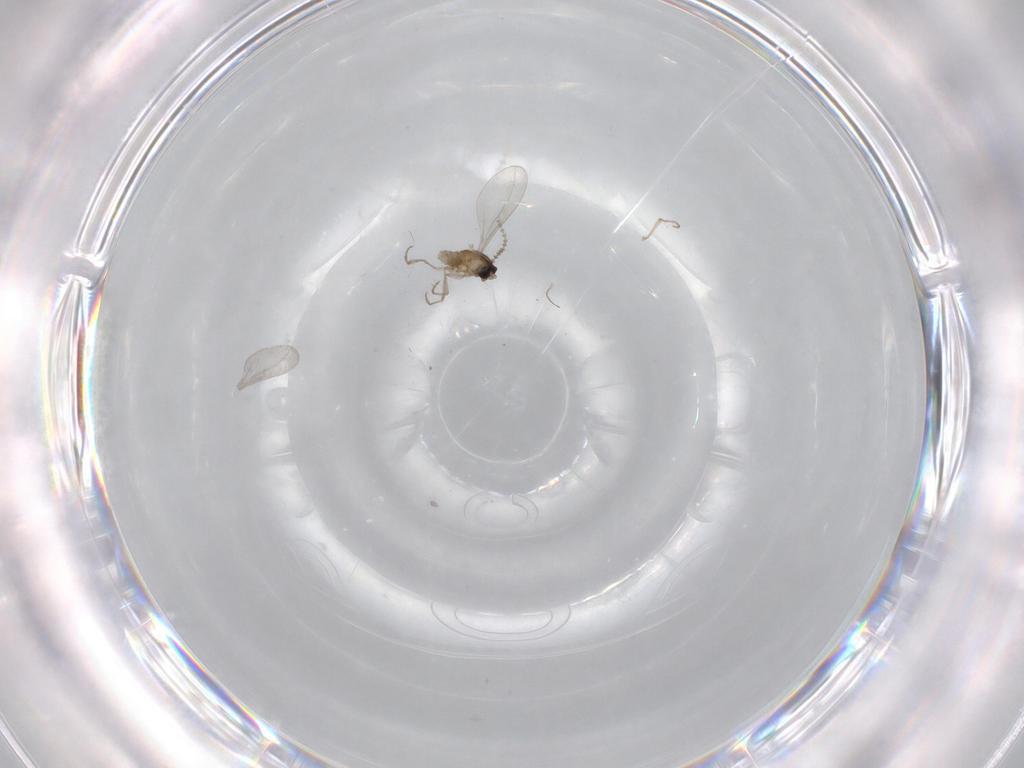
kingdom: Animalia
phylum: Arthropoda
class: Insecta
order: Diptera
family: Cecidomyiidae
